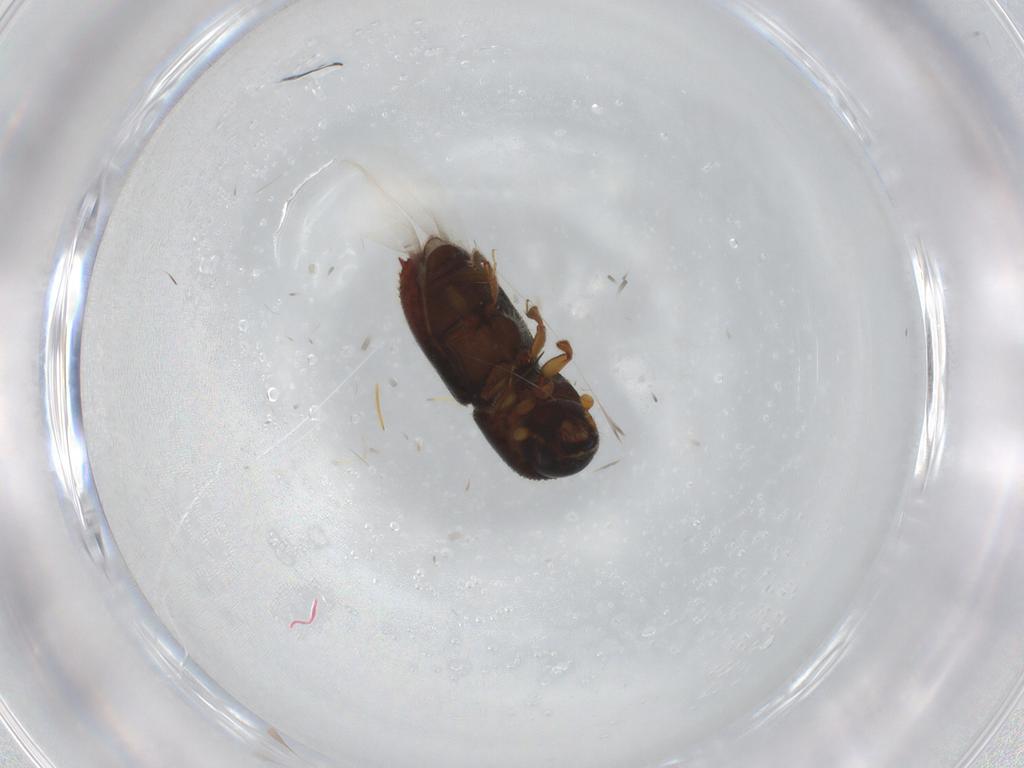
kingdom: Animalia
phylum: Arthropoda
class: Insecta
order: Coleoptera
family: Curculionidae
